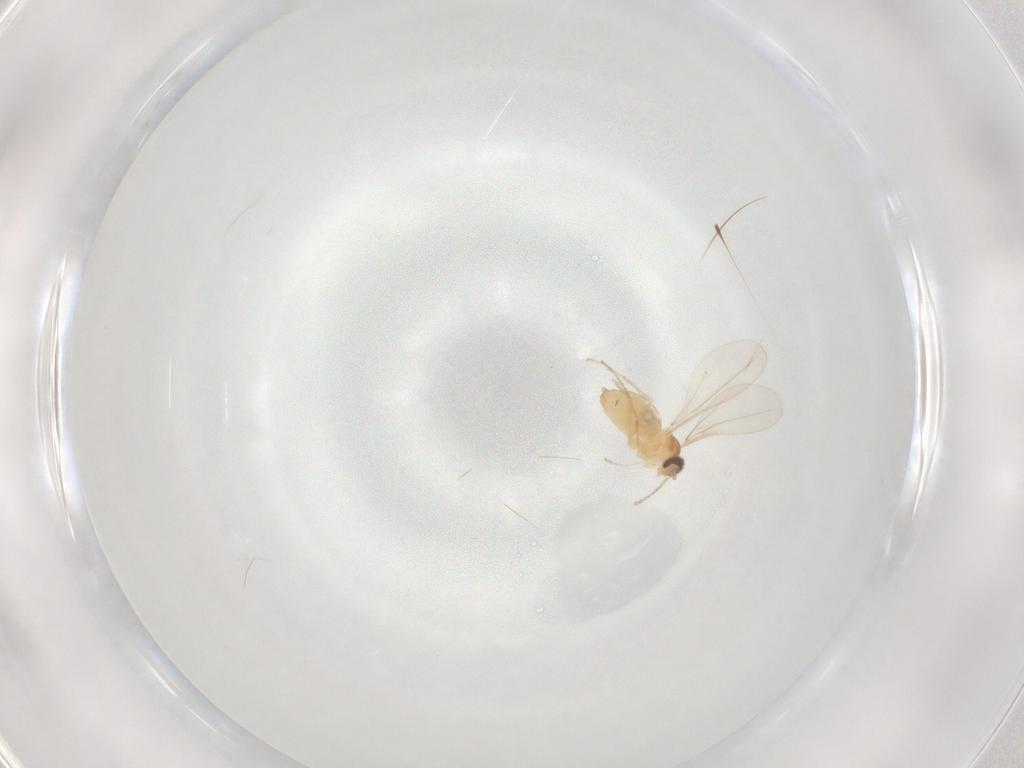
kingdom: Animalia
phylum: Arthropoda
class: Insecta
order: Diptera
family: Cecidomyiidae
